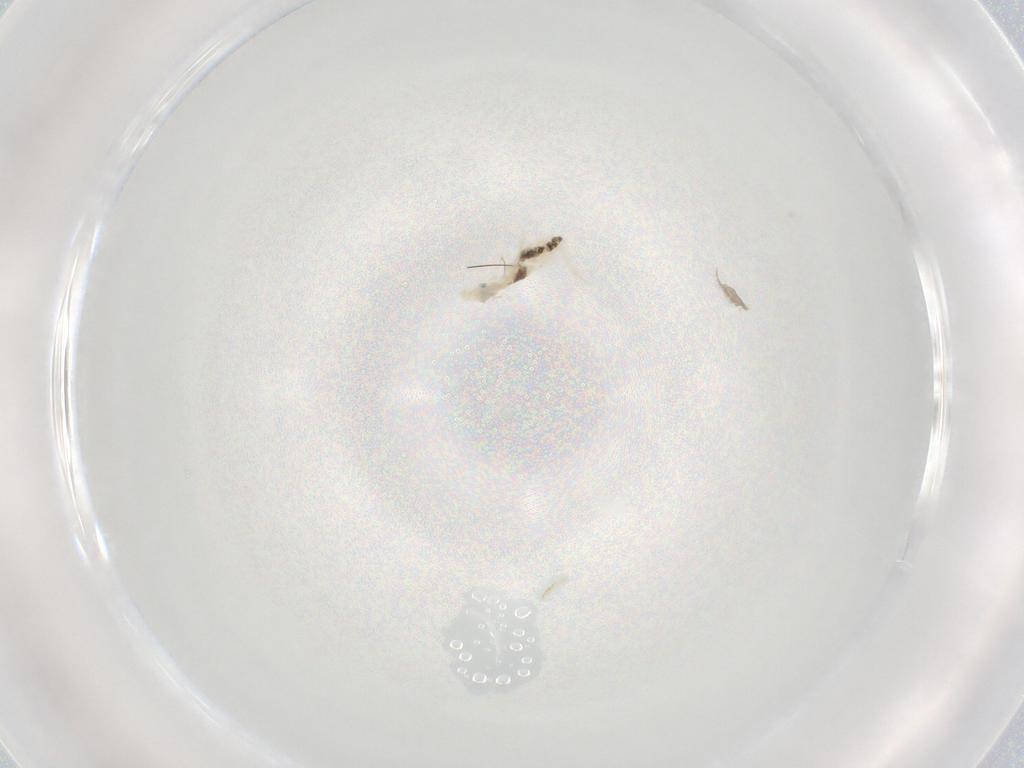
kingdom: Animalia
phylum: Arthropoda
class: Collembola
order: Entomobryomorpha
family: Entomobryidae
